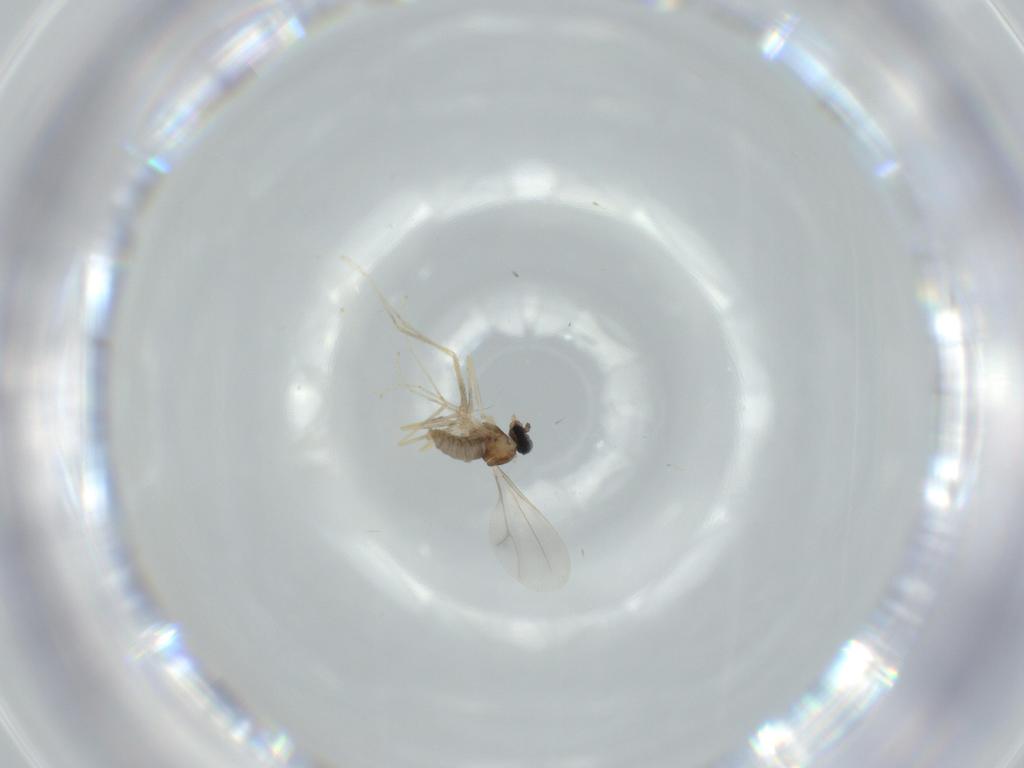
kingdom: Animalia
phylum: Arthropoda
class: Insecta
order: Diptera
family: Cecidomyiidae
